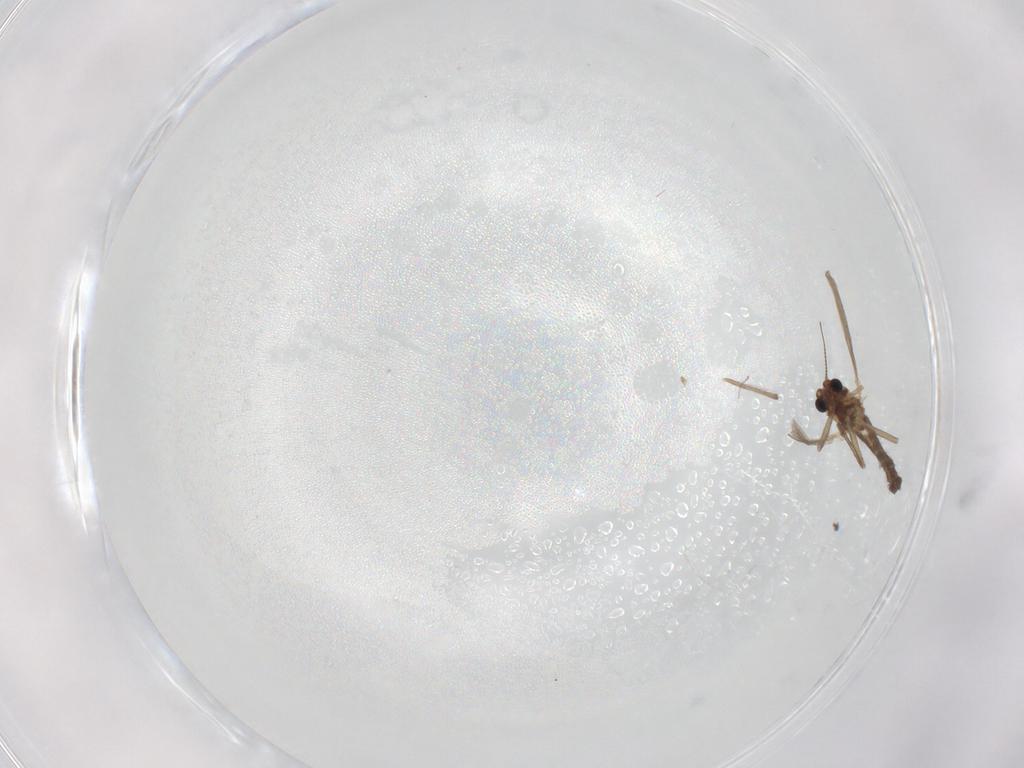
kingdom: Animalia
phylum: Arthropoda
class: Insecta
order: Diptera
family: Chironomidae
